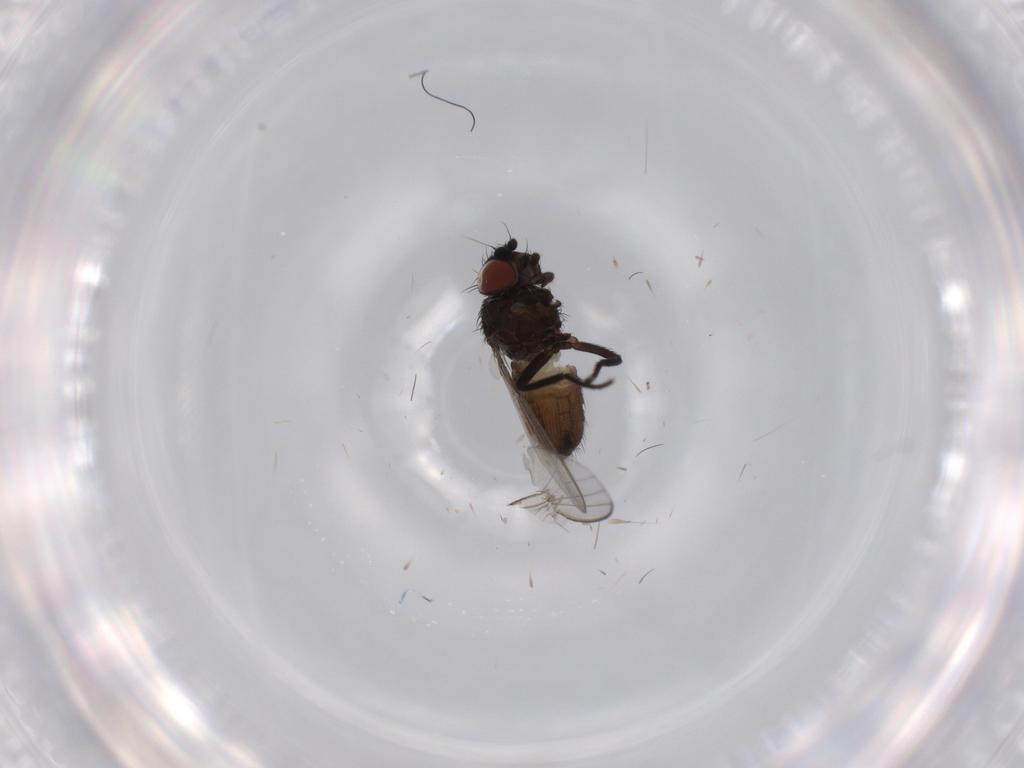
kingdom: Animalia
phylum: Arthropoda
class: Insecta
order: Diptera
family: Milichiidae
